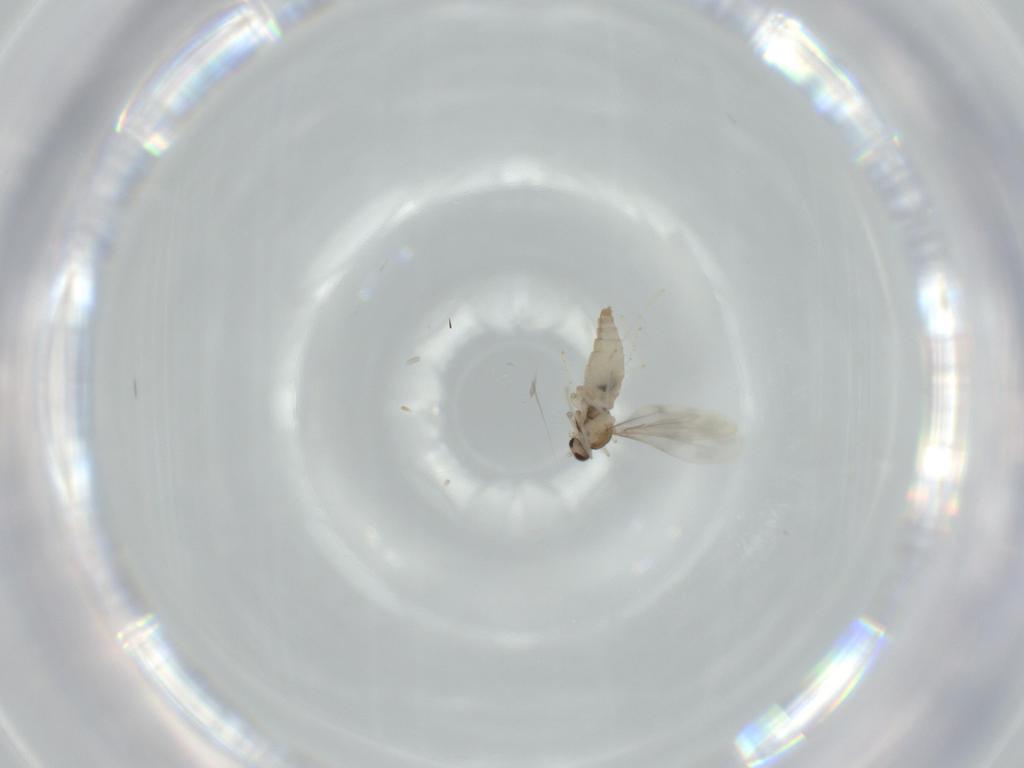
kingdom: Animalia
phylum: Arthropoda
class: Insecta
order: Diptera
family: Cecidomyiidae
